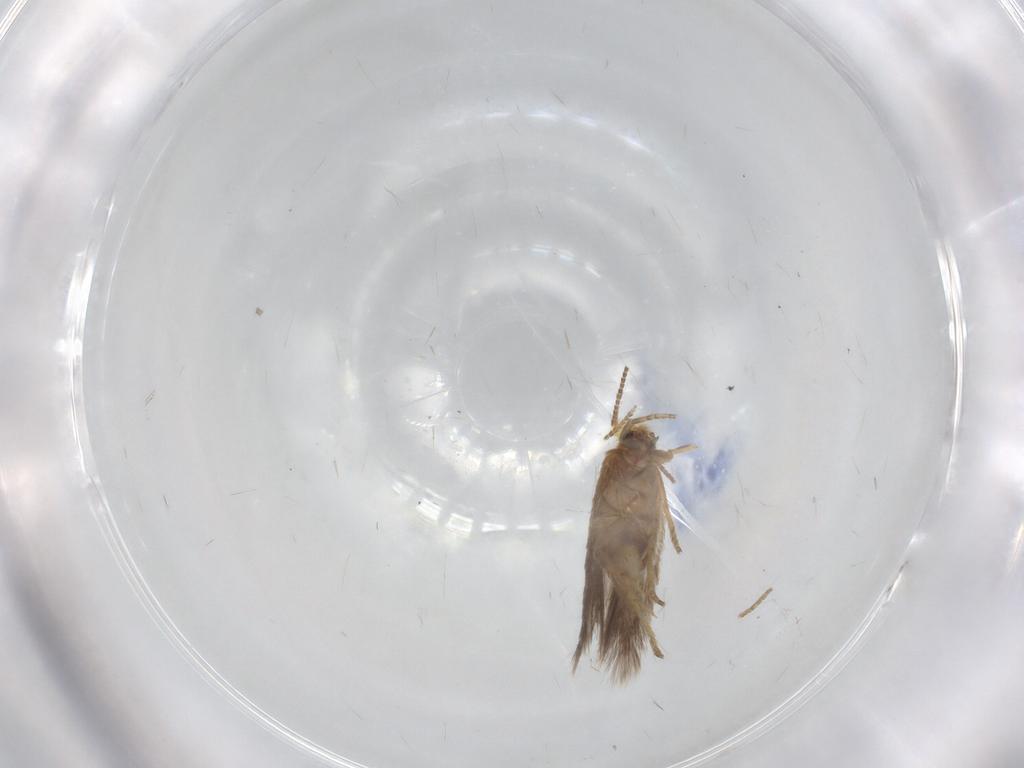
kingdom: Animalia
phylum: Arthropoda
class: Insecta
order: Lepidoptera
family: Nepticulidae
